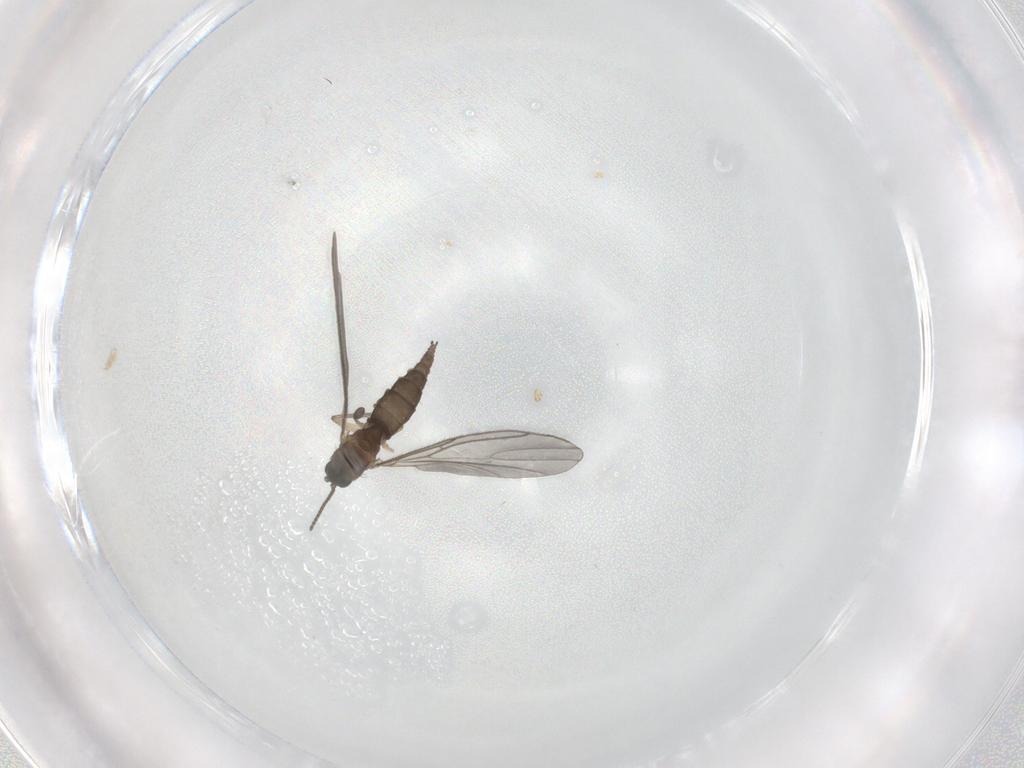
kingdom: Animalia
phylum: Arthropoda
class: Insecta
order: Diptera
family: Sciaridae
